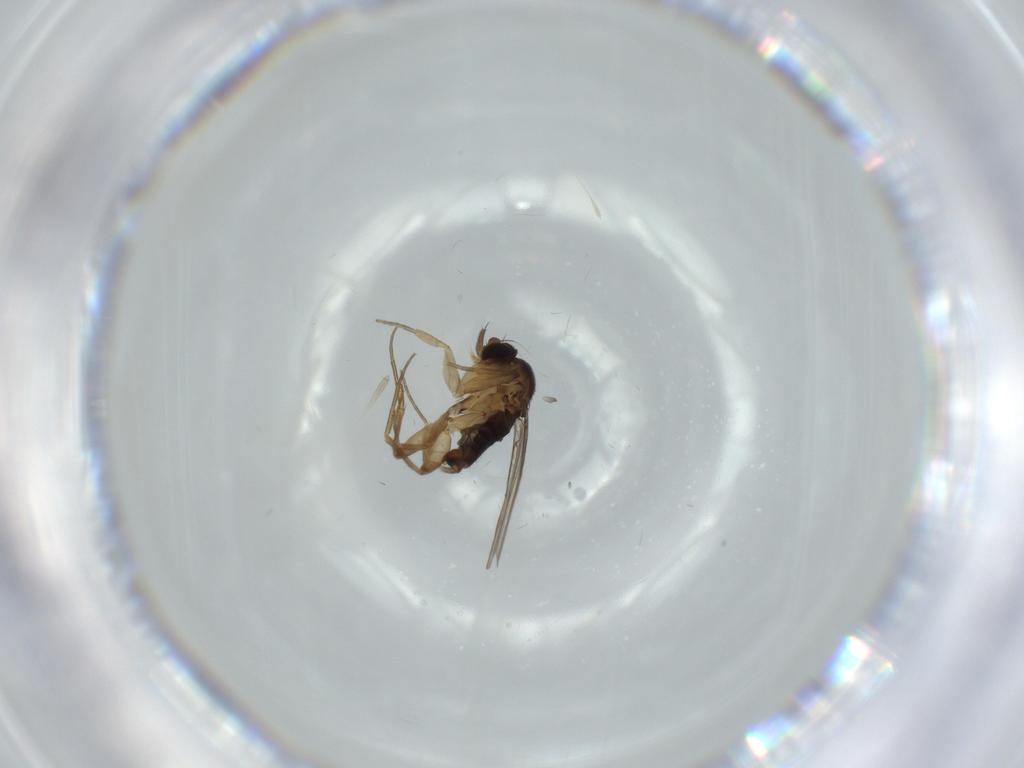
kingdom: Animalia
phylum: Arthropoda
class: Insecta
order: Diptera
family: Phoridae
